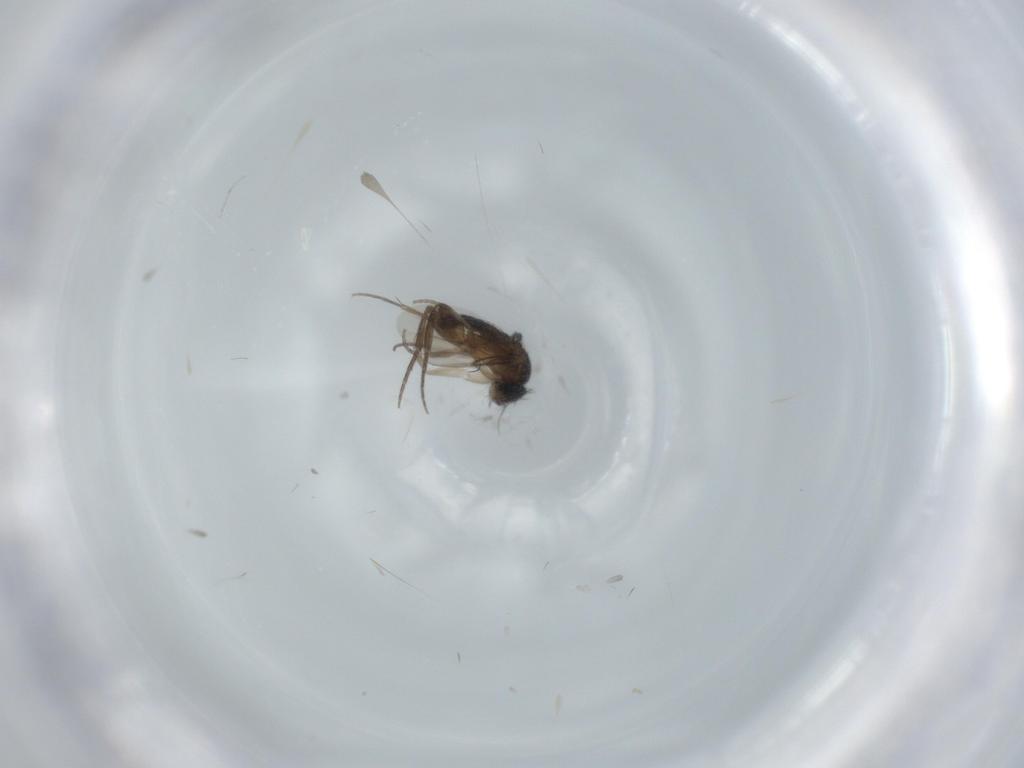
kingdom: Animalia
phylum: Arthropoda
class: Insecta
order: Diptera
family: Phoridae
